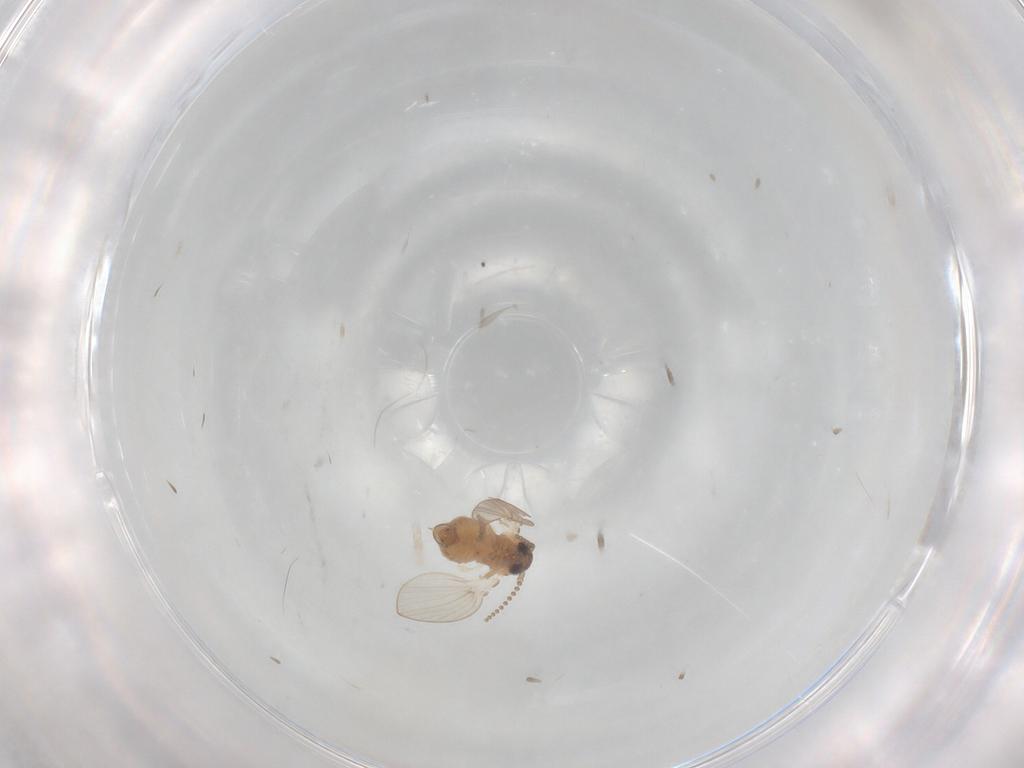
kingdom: Animalia
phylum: Arthropoda
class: Insecta
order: Diptera
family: Psychodidae
